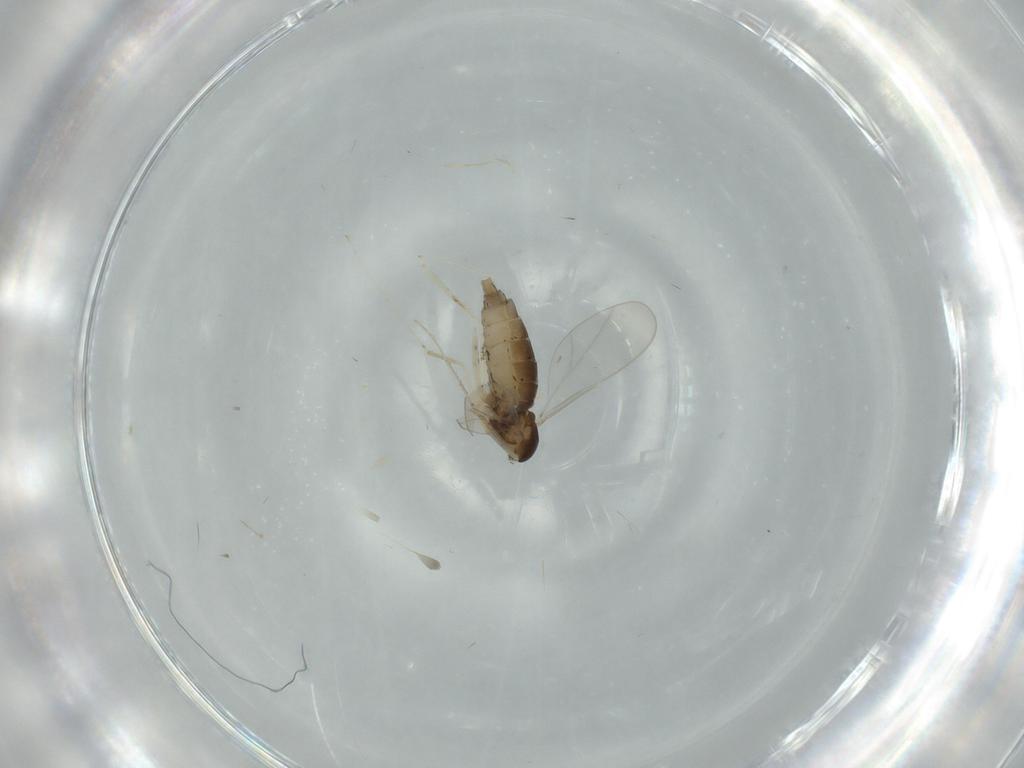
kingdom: Animalia
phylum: Arthropoda
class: Insecta
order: Diptera
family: Cecidomyiidae
